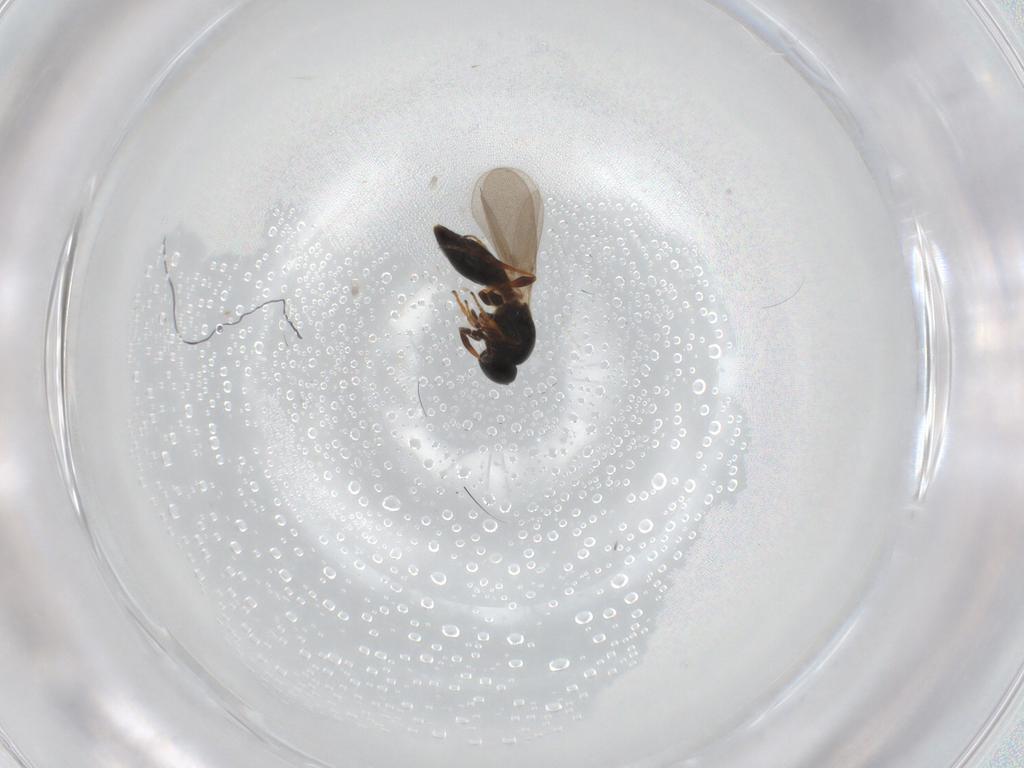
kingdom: Animalia
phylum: Arthropoda
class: Insecta
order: Hymenoptera
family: Platygastridae
